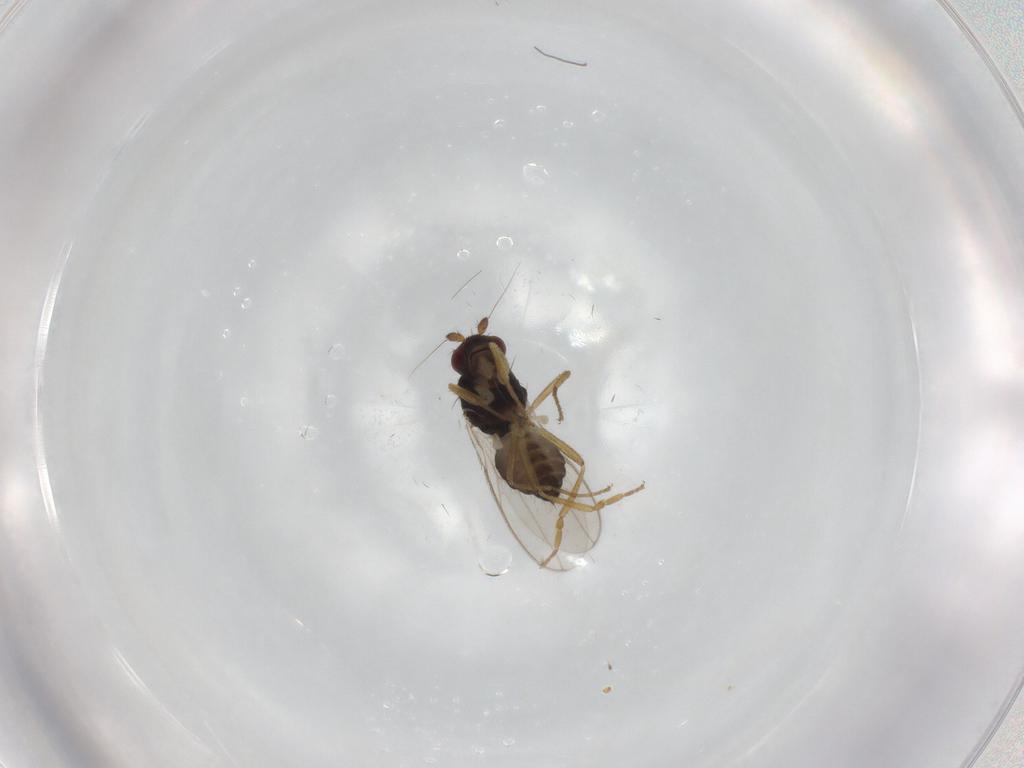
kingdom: Animalia
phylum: Arthropoda
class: Insecta
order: Diptera
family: Sphaeroceridae
